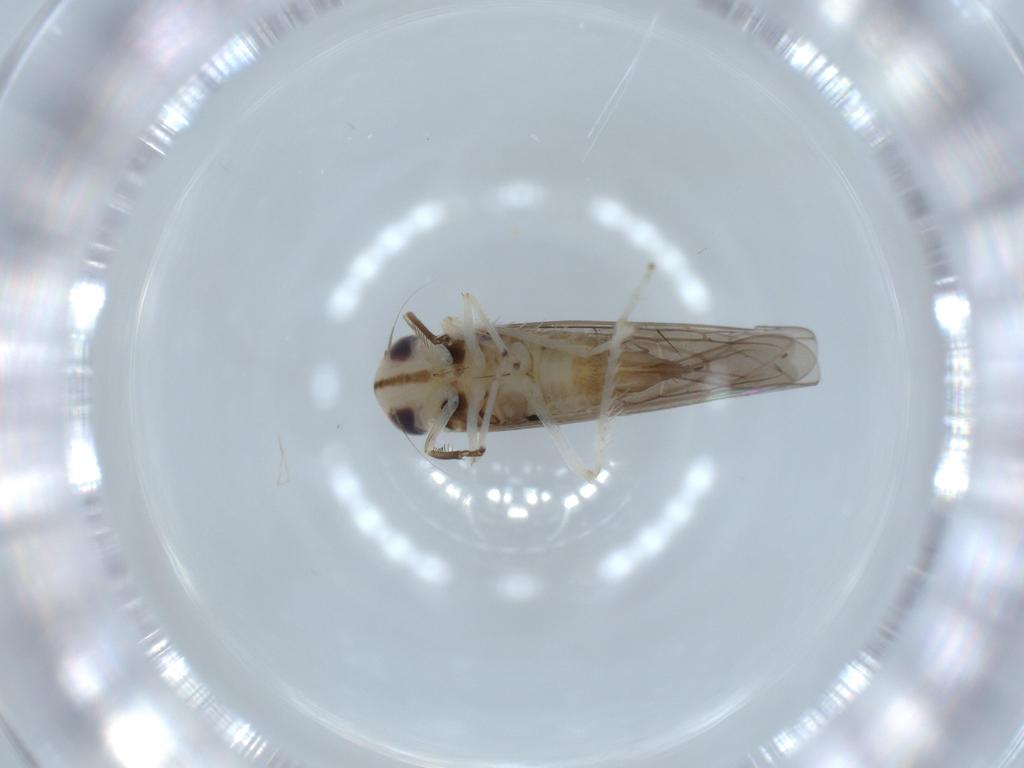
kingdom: Animalia
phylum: Arthropoda
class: Insecta
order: Hemiptera
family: Cicadellidae
